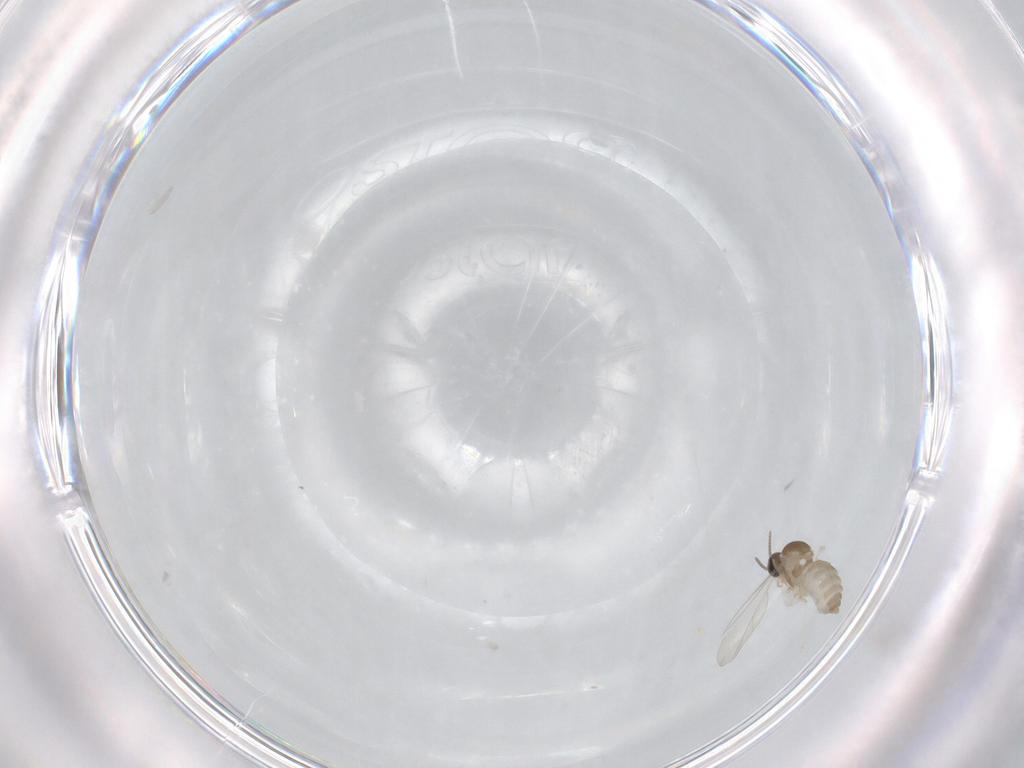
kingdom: Animalia
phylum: Arthropoda
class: Insecta
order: Diptera
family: Cecidomyiidae
